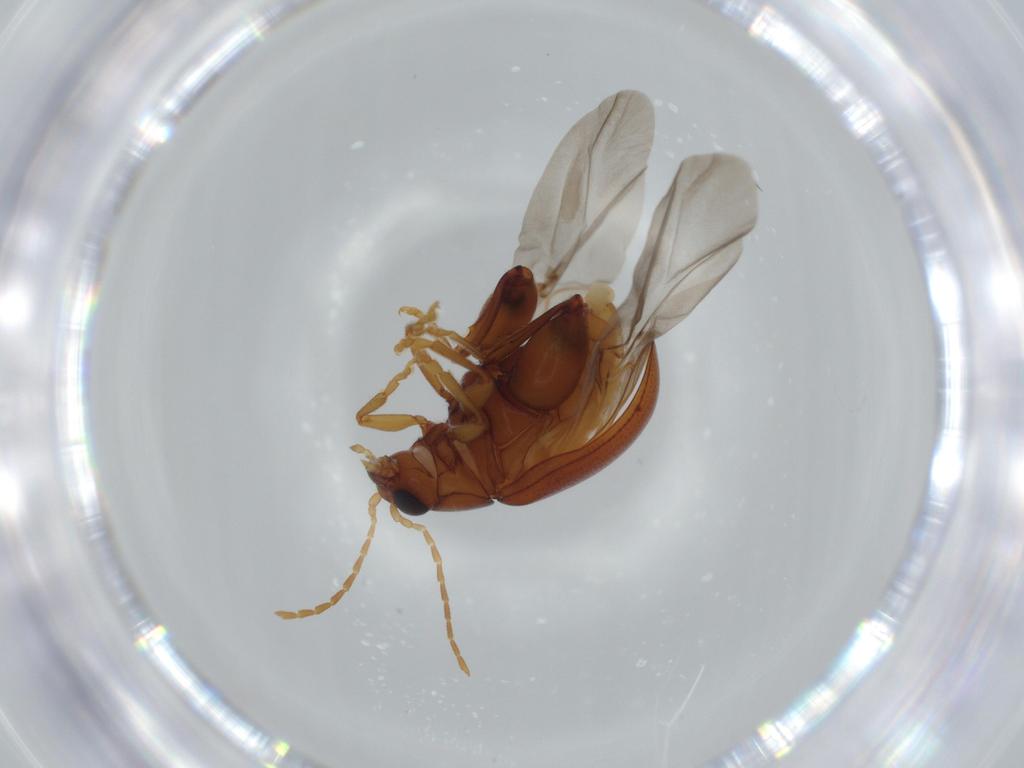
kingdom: Animalia
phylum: Arthropoda
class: Insecta
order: Coleoptera
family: Chrysomelidae
